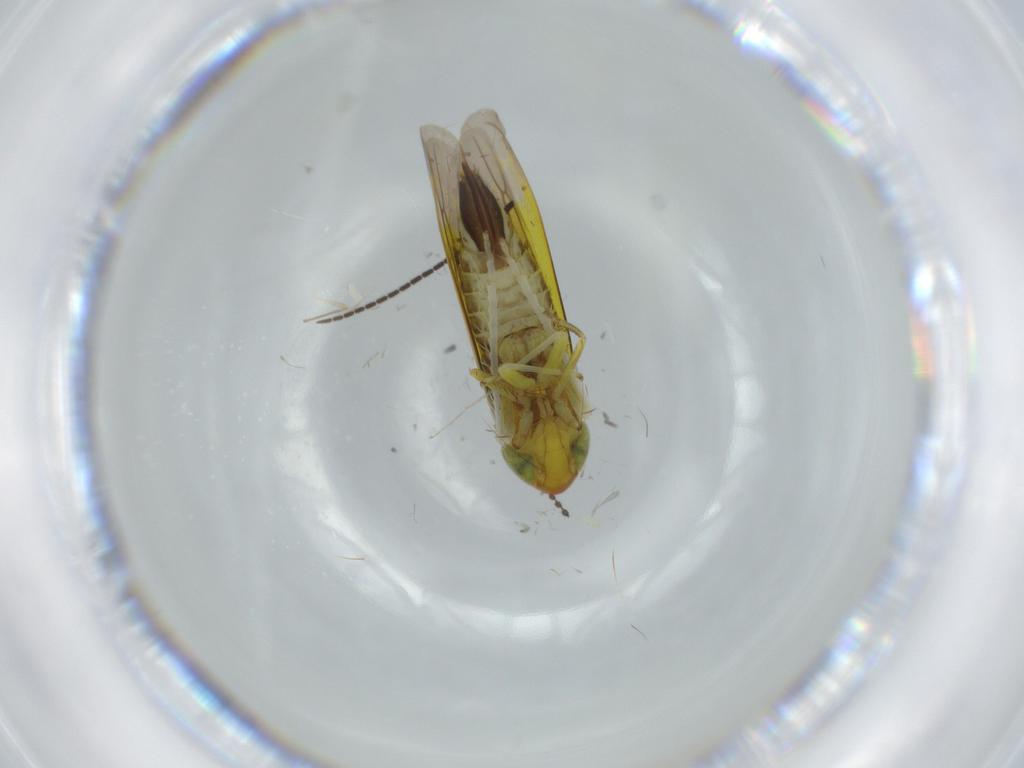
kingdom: Animalia
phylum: Arthropoda
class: Insecta
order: Hemiptera
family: Cicadellidae
